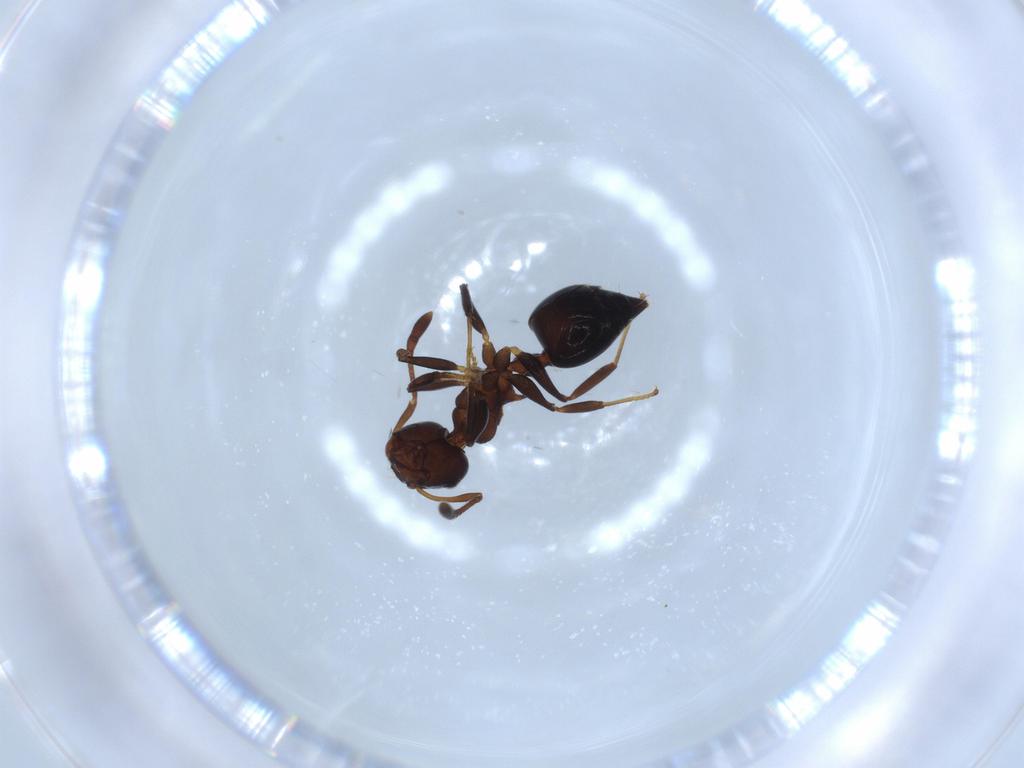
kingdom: Animalia
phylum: Arthropoda
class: Insecta
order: Hymenoptera
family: Formicidae
